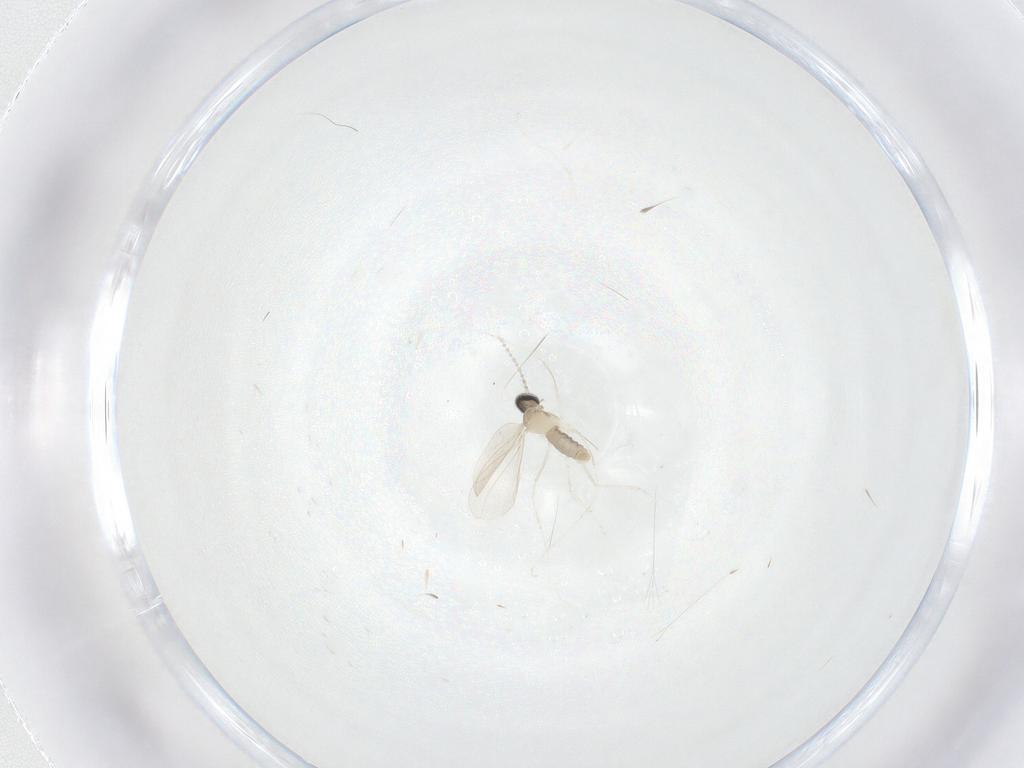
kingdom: Animalia
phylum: Arthropoda
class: Insecta
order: Diptera
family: Cecidomyiidae
